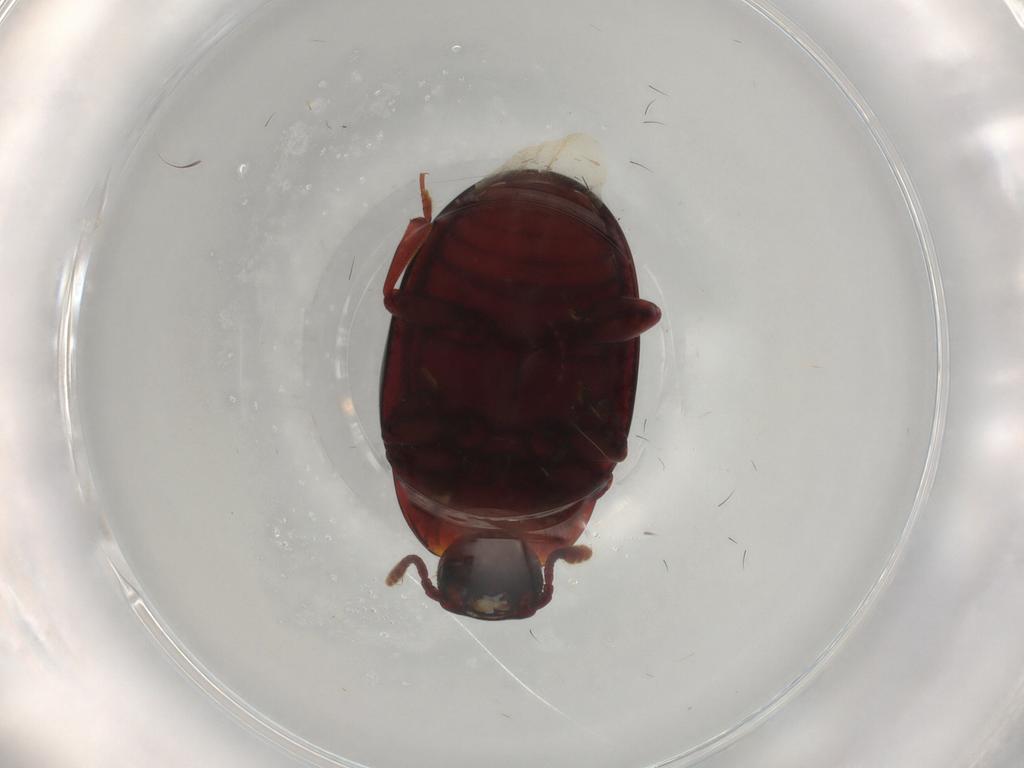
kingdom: Animalia
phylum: Arthropoda
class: Insecta
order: Coleoptera
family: Zopheridae
